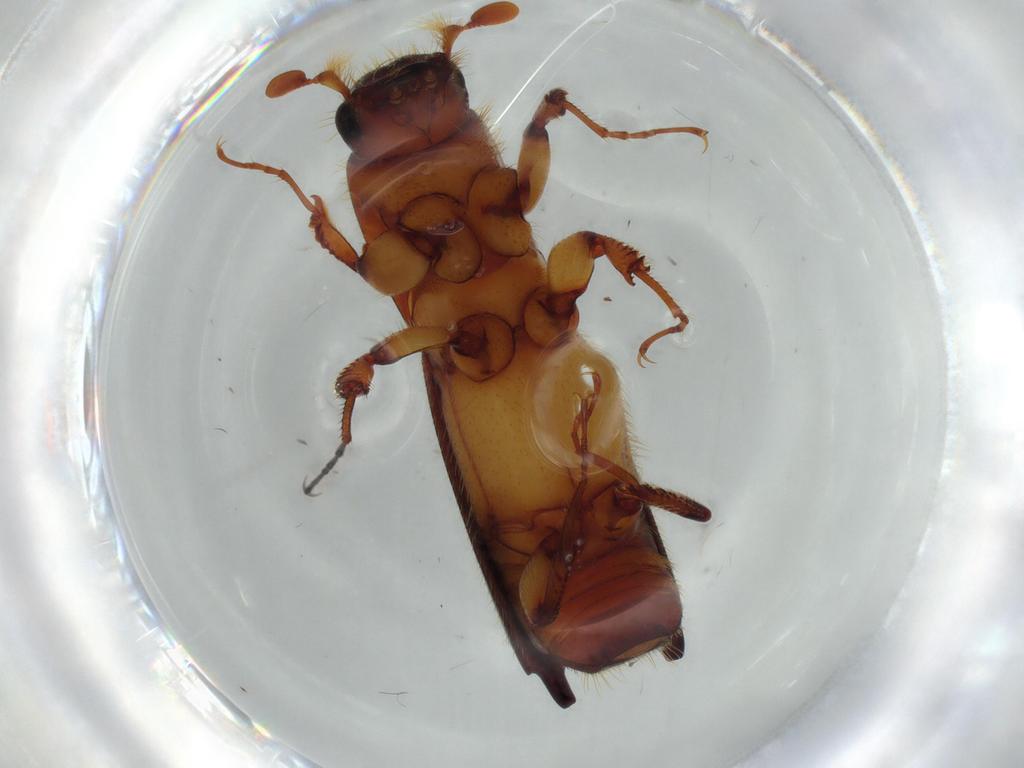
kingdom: Animalia
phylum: Arthropoda
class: Insecta
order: Coleoptera
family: Curculionidae
